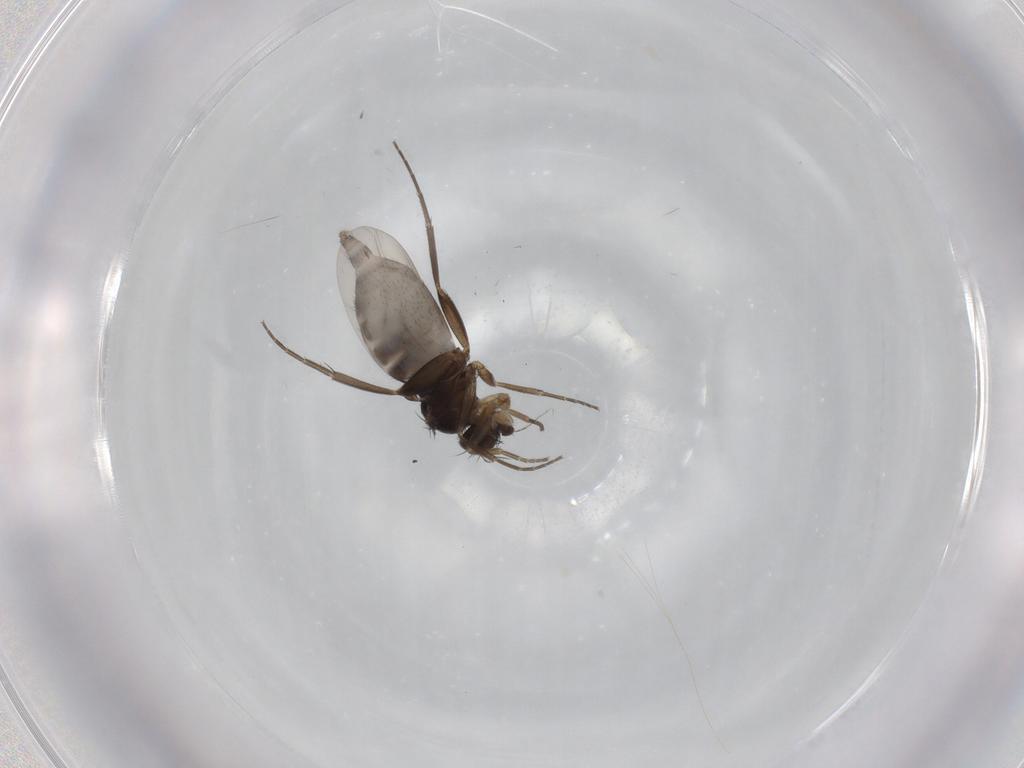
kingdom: Animalia
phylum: Arthropoda
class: Insecta
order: Diptera
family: Phoridae
